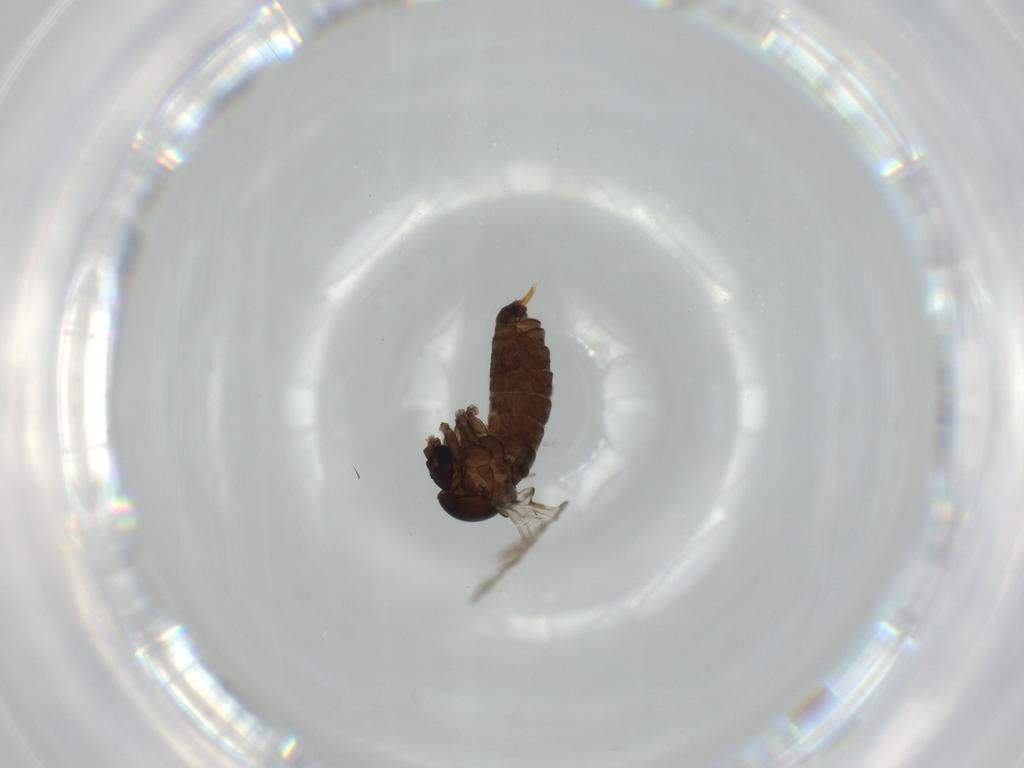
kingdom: Animalia
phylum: Arthropoda
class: Insecta
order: Diptera
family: Psychodidae
